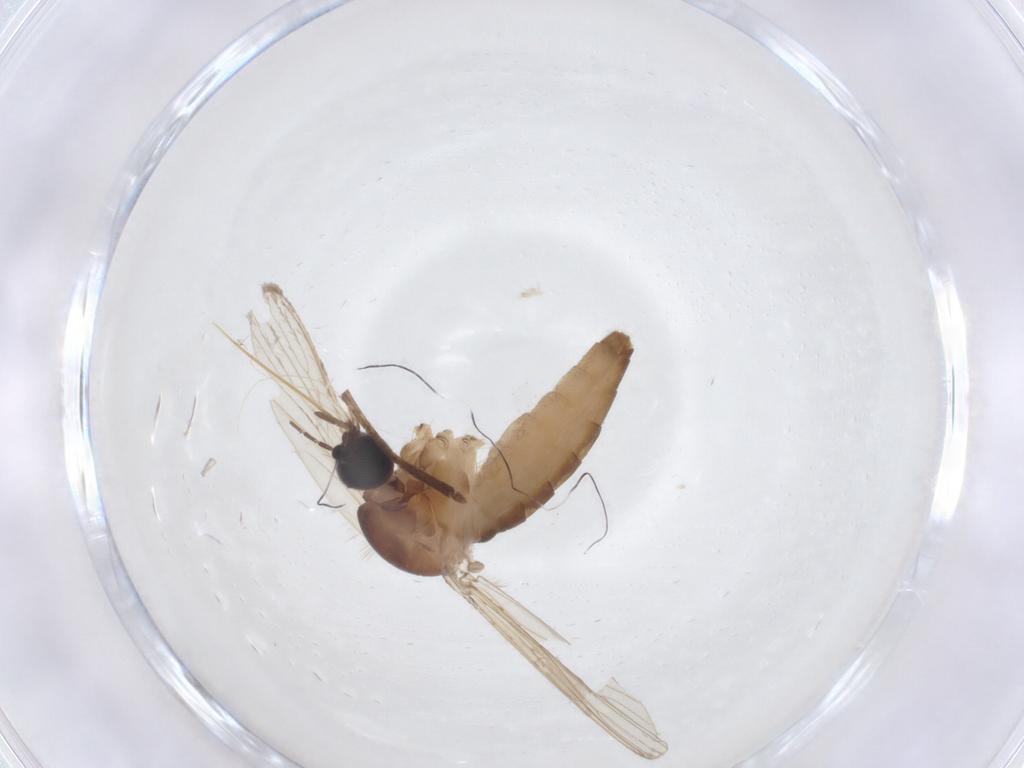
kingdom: Animalia
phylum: Arthropoda
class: Insecta
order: Diptera
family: Culicidae
